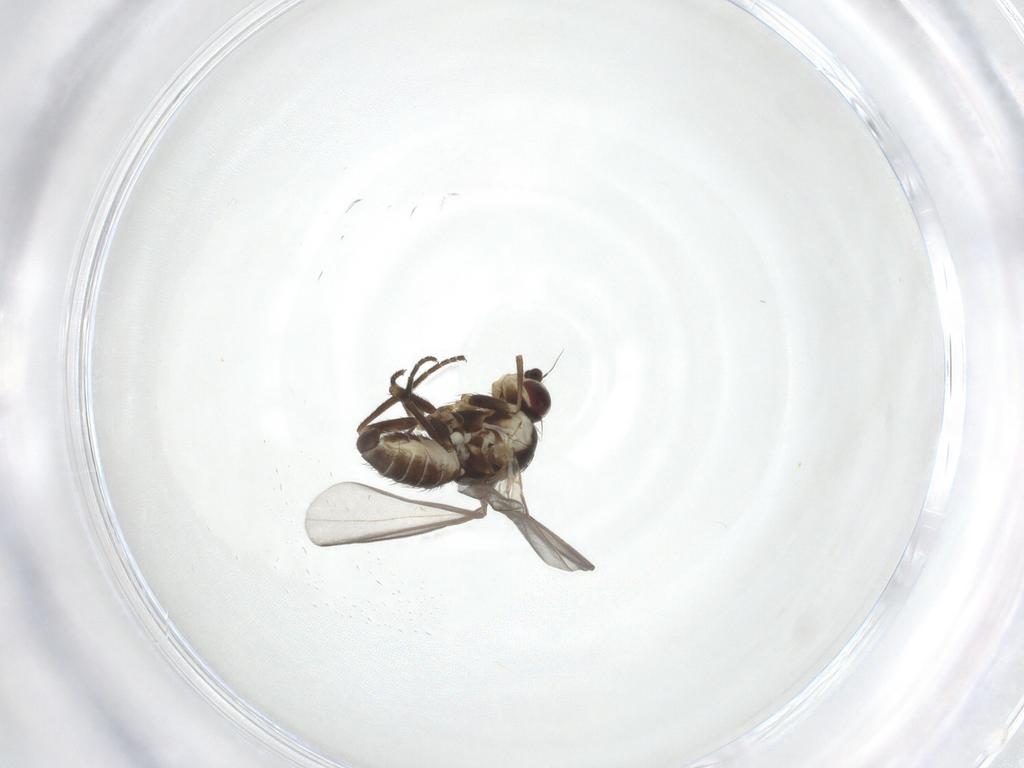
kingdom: Animalia
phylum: Arthropoda
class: Insecta
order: Diptera
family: Agromyzidae
